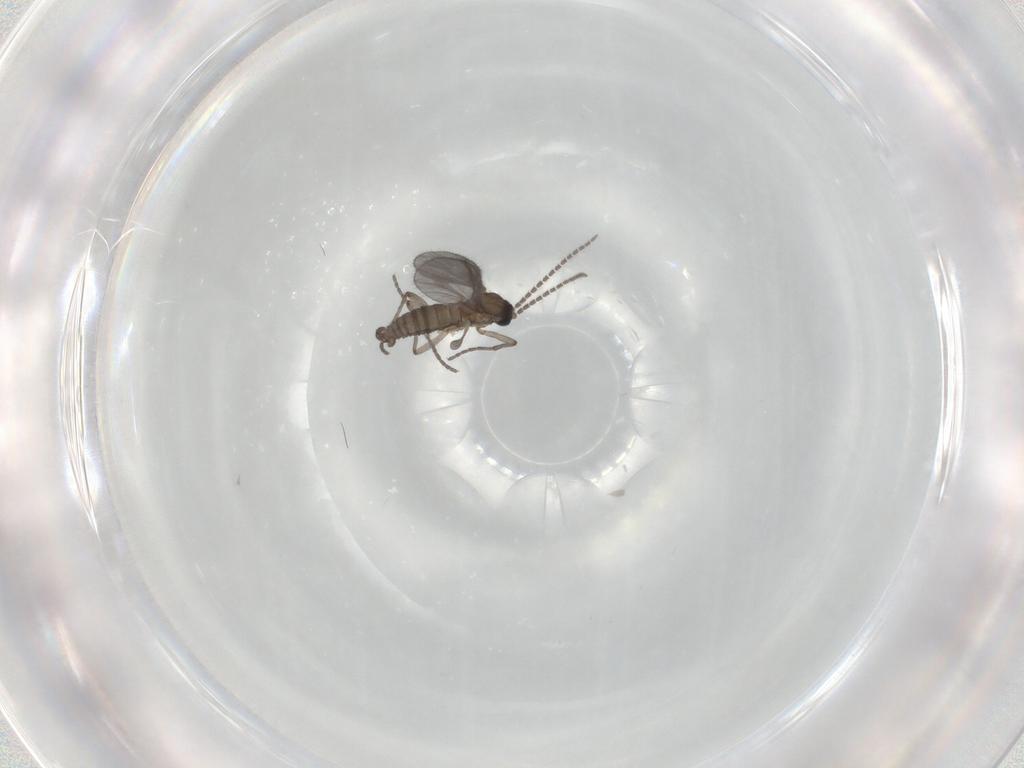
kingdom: Animalia
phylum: Arthropoda
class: Insecta
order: Diptera
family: Sciaridae
